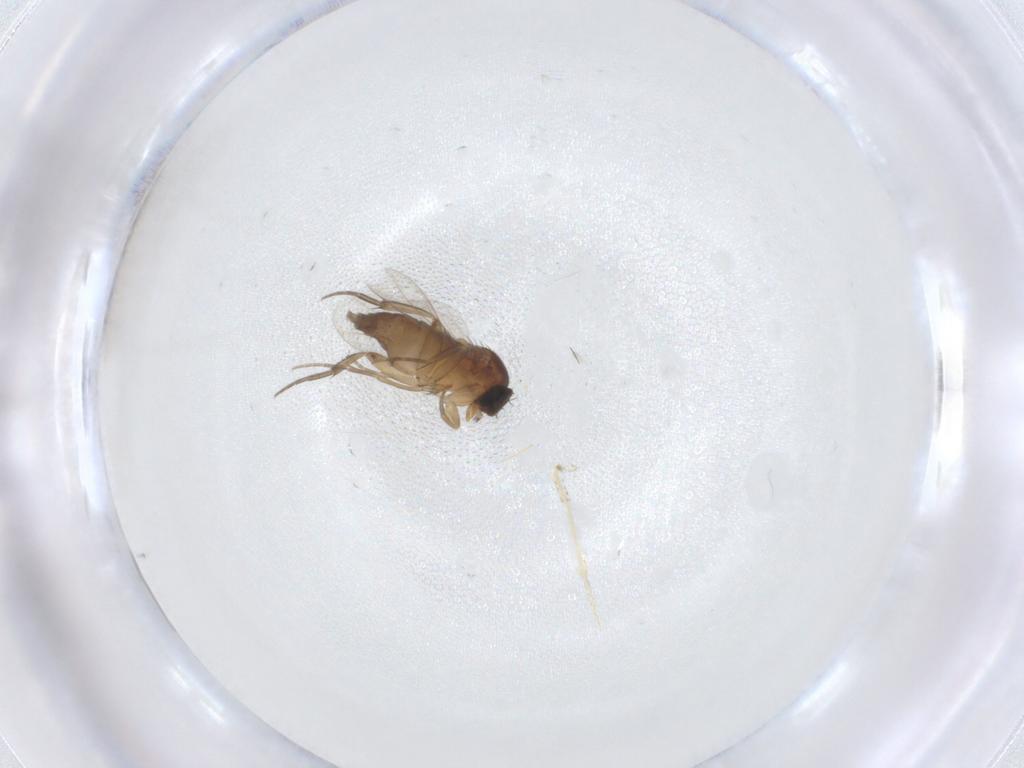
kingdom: Animalia
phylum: Arthropoda
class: Insecta
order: Diptera
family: Phoridae
